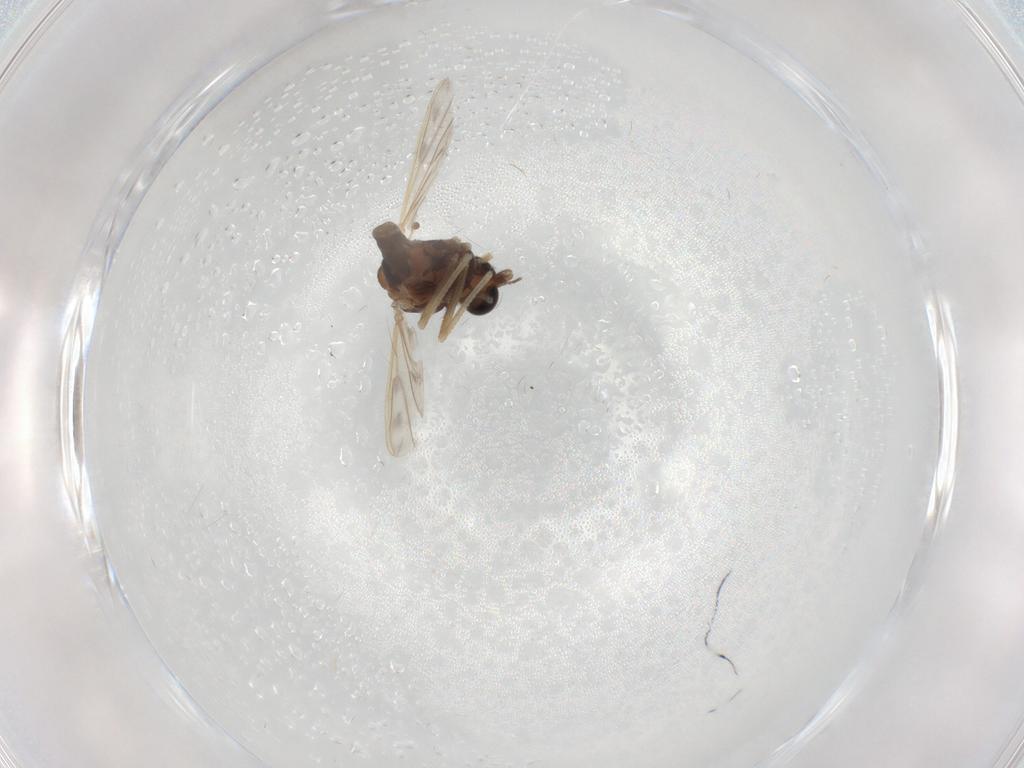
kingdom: Animalia
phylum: Arthropoda
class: Insecta
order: Diptera
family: Chironomidae
